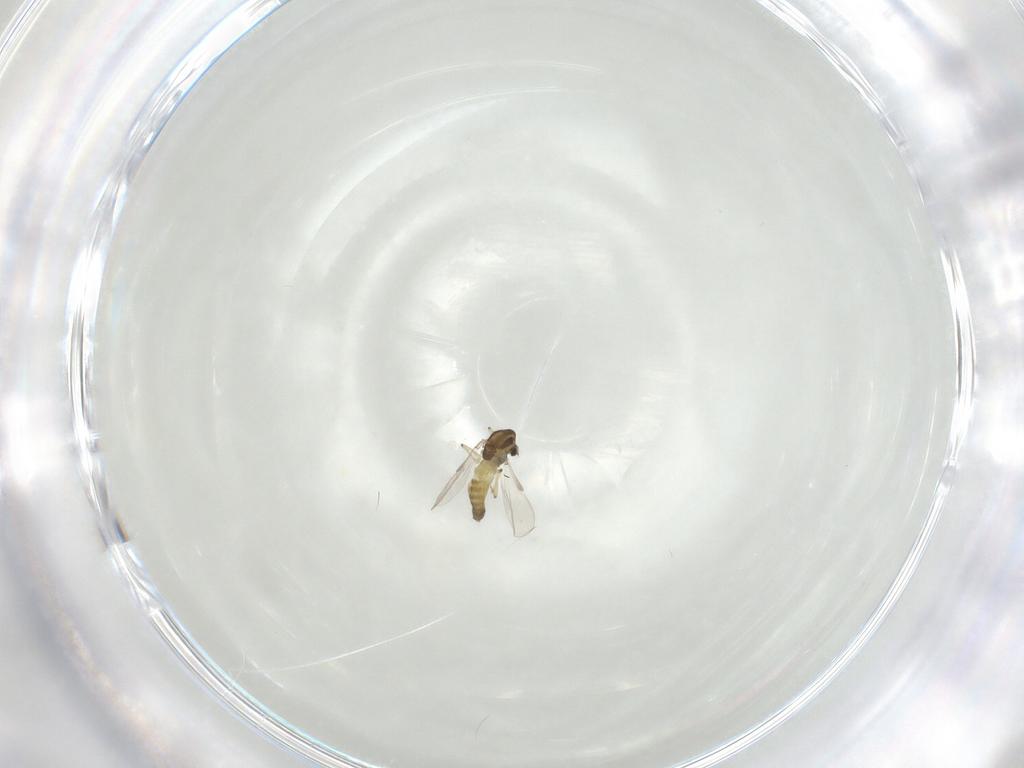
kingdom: Animalia
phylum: Arthropoda
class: Insecta
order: Diptera
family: Chironomidae
